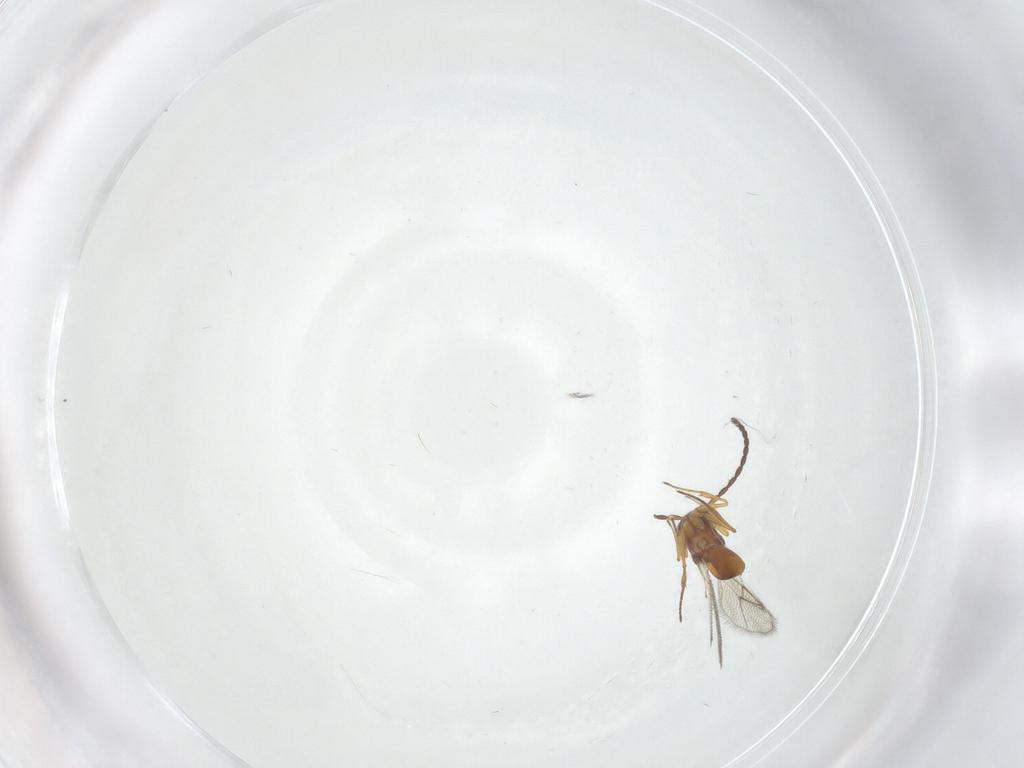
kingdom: Animalia
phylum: Arthropoda
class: Insecta
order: Hymenoptera
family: Figitidae
